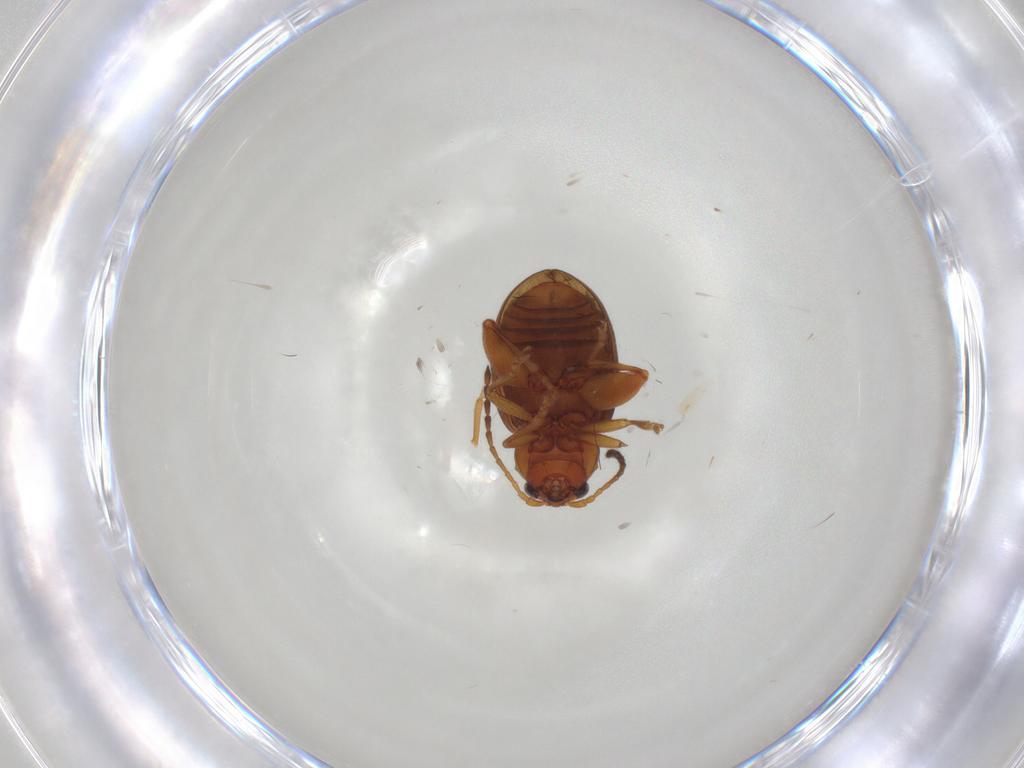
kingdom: Animalia
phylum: Arthropoda
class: Insecta
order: Coleoptera
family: Chrysomelidae
